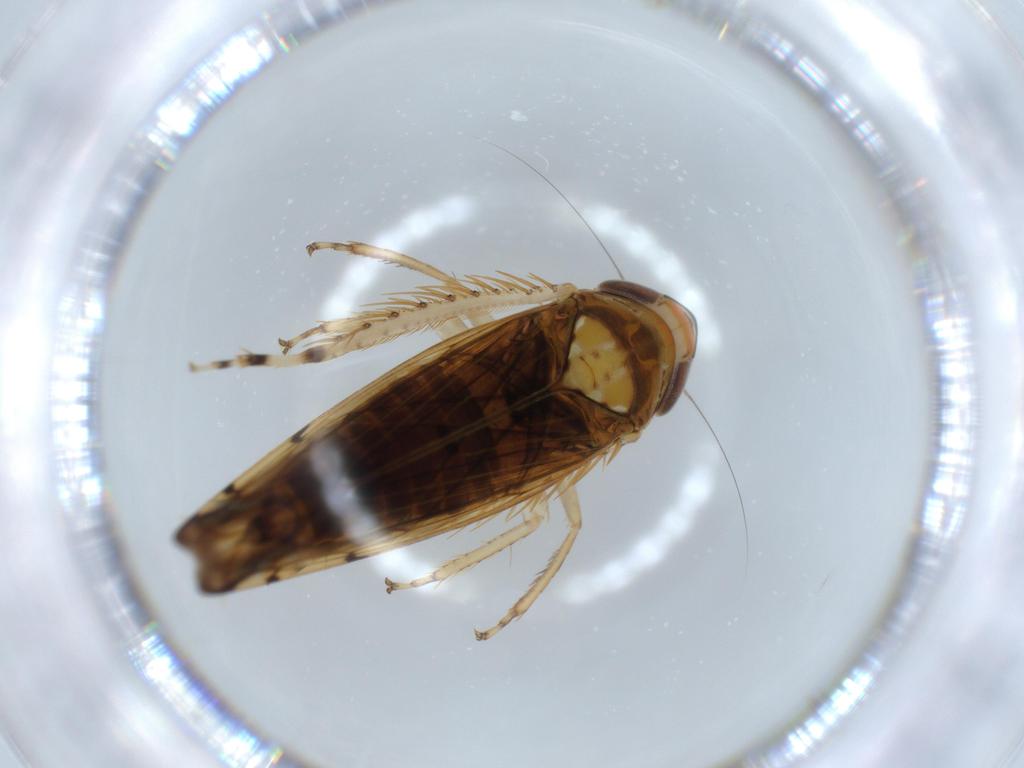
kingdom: Animalia
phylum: Arthropoda
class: Insecta
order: Hemiptera
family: Cicadellidae
